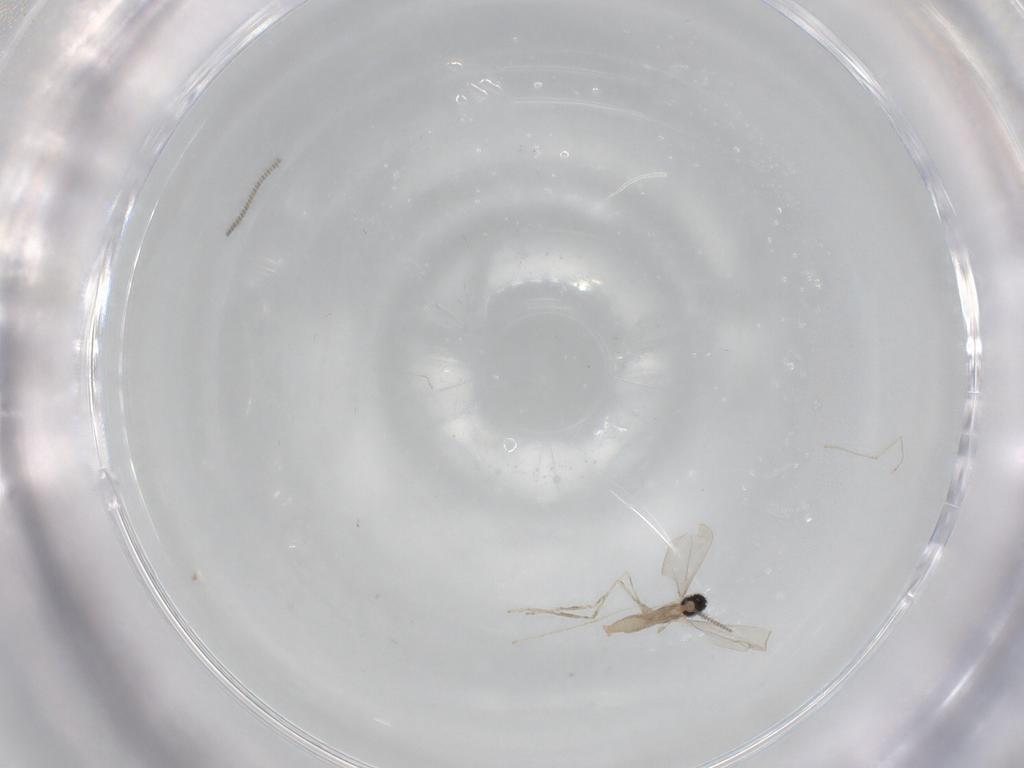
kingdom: Animalia
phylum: Arthropoda
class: Insecta
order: Diptera
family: Cecidomyiidae
